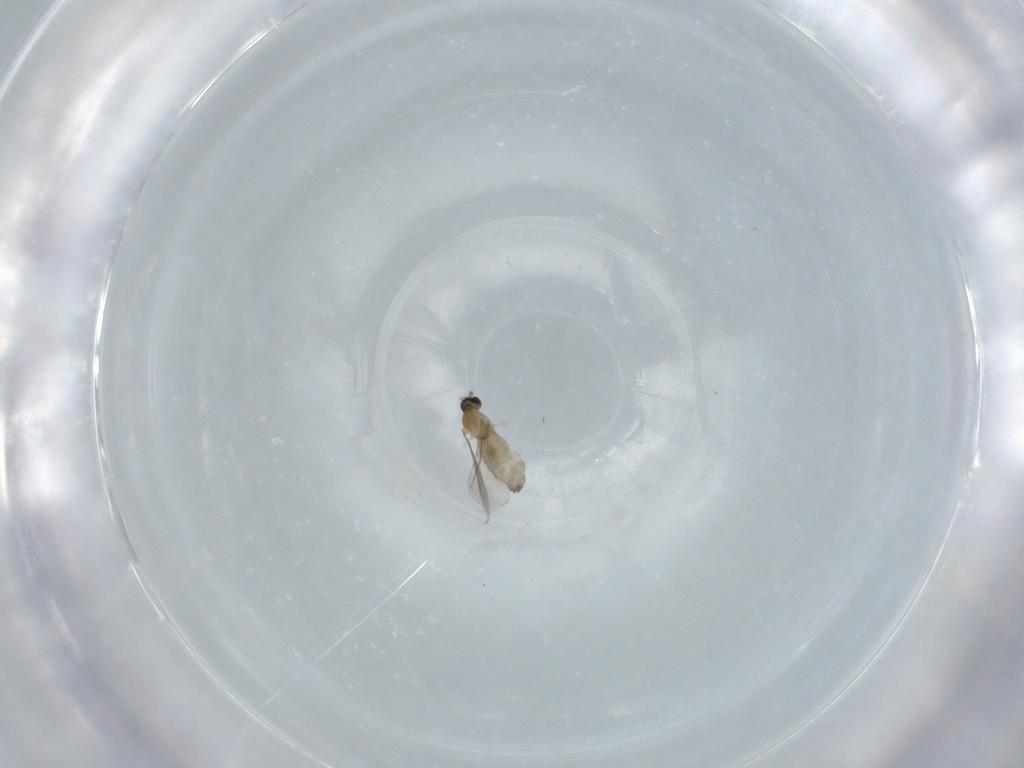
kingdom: Animalia
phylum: Arthropoda
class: Insecta
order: Diptera
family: Cecidomyiidae
